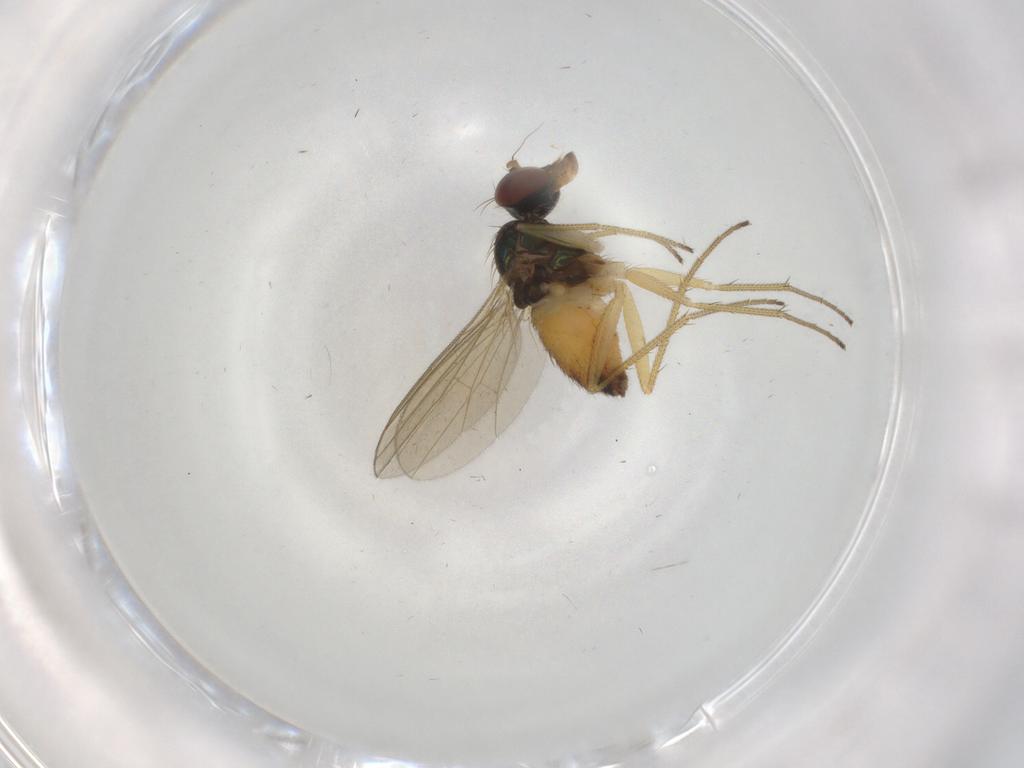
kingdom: Animalia
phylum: Arthropoda
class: Insecta
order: Diptera
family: Dolichopodidae
